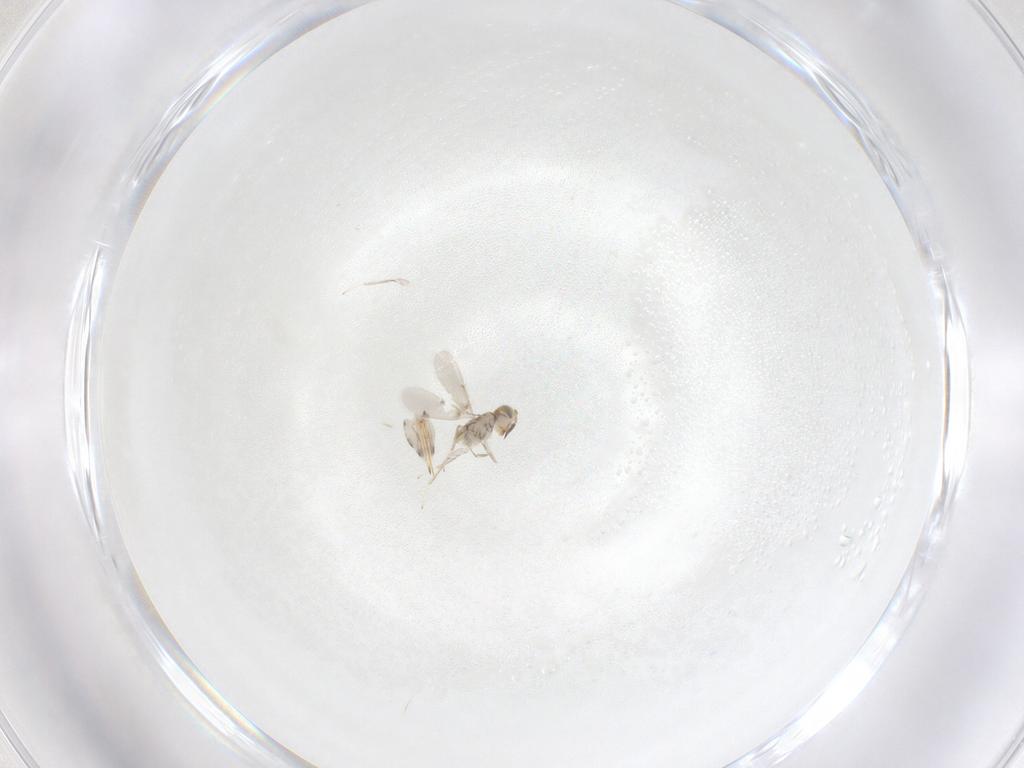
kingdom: Animalia
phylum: Arthropoda
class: Insecta
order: Hymenoptera
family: Aphelinidae
